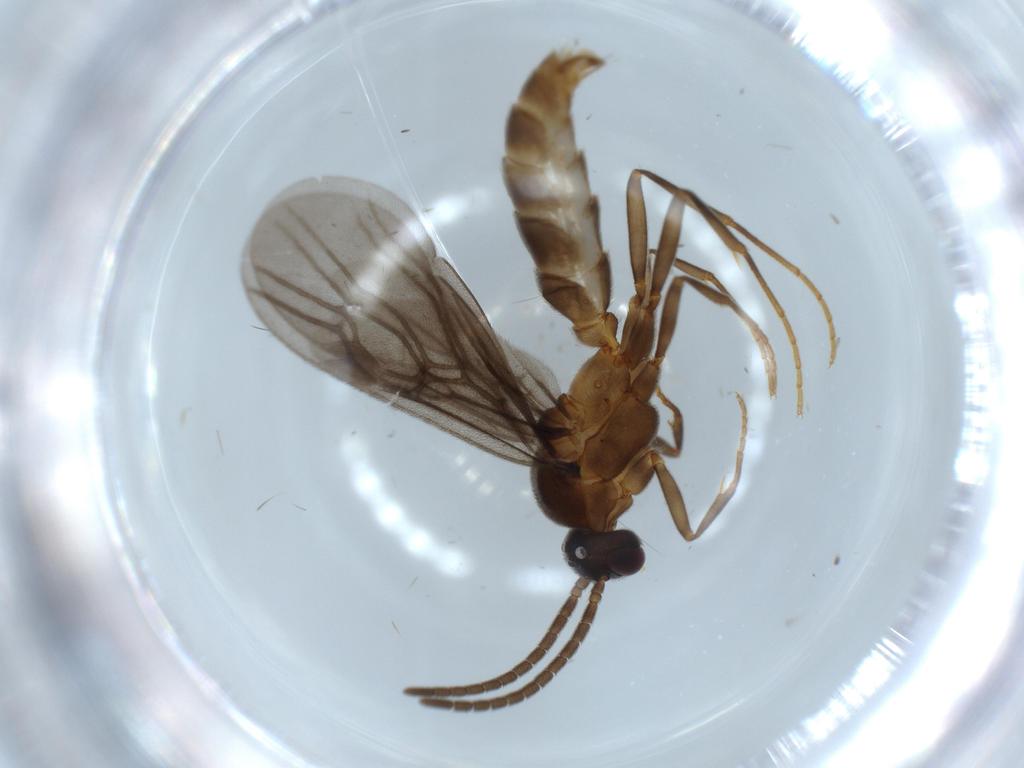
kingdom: Animalia
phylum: Arthropoda
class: Insecta
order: Hymenoptera
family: Formicidae
